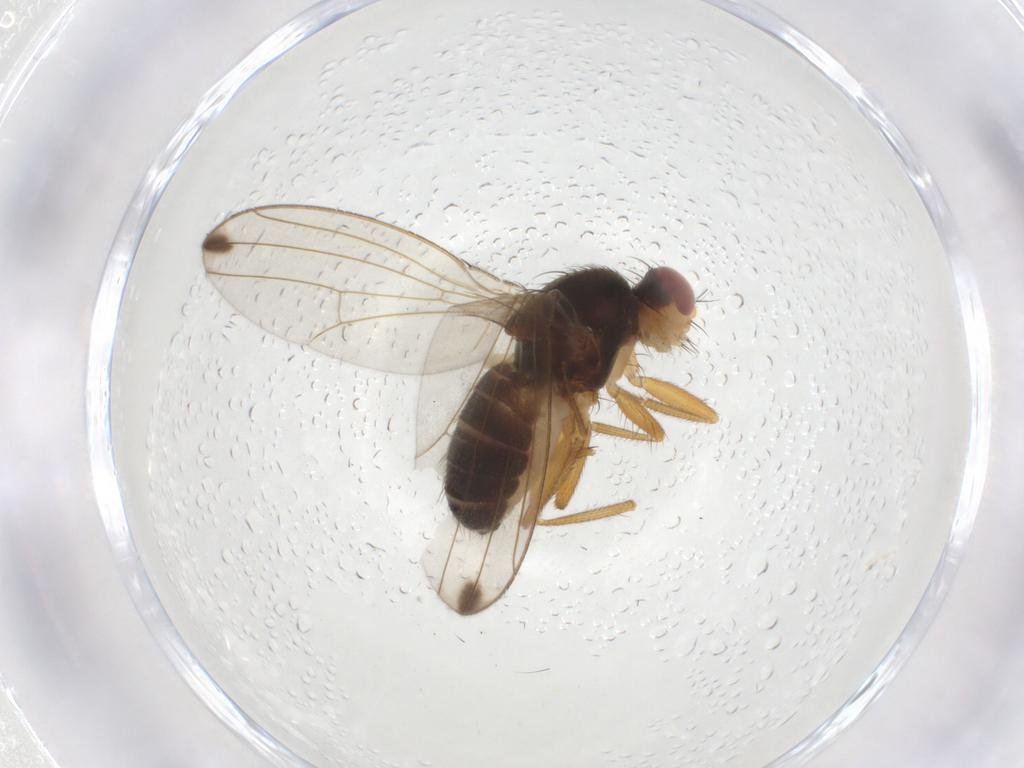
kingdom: Animalia
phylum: Arthropoda
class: Insecta
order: Diptera
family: Drosophilidae
